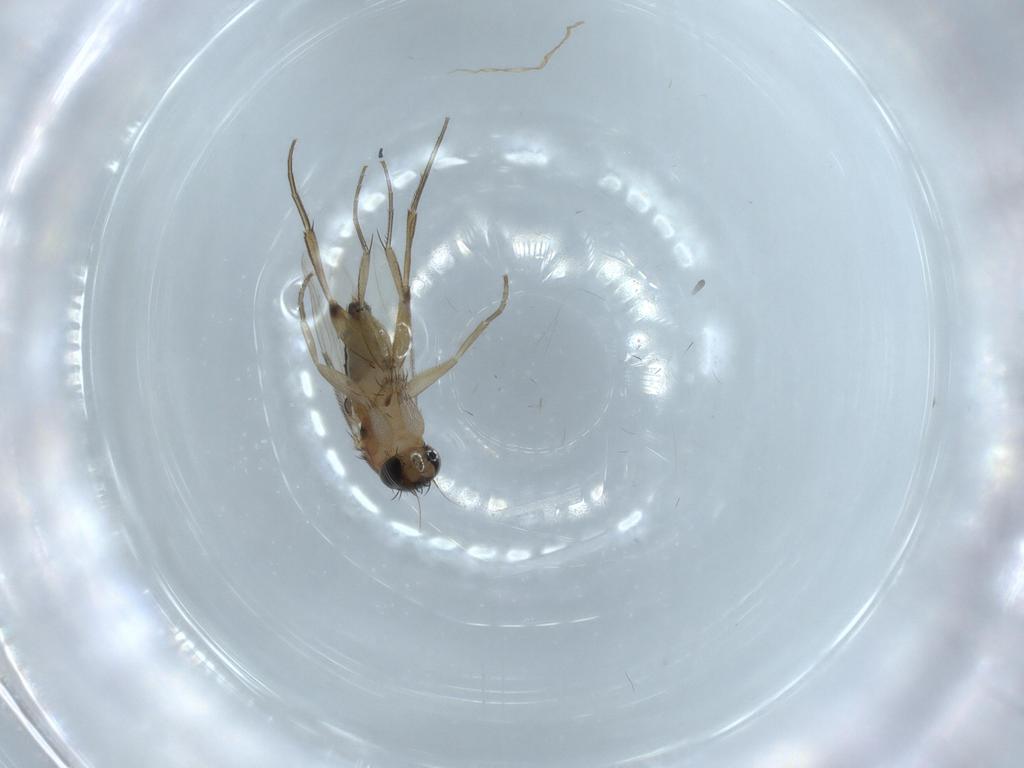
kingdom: Animalia
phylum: Arthropoda
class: Insecta
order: Diptera
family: Phoridae
